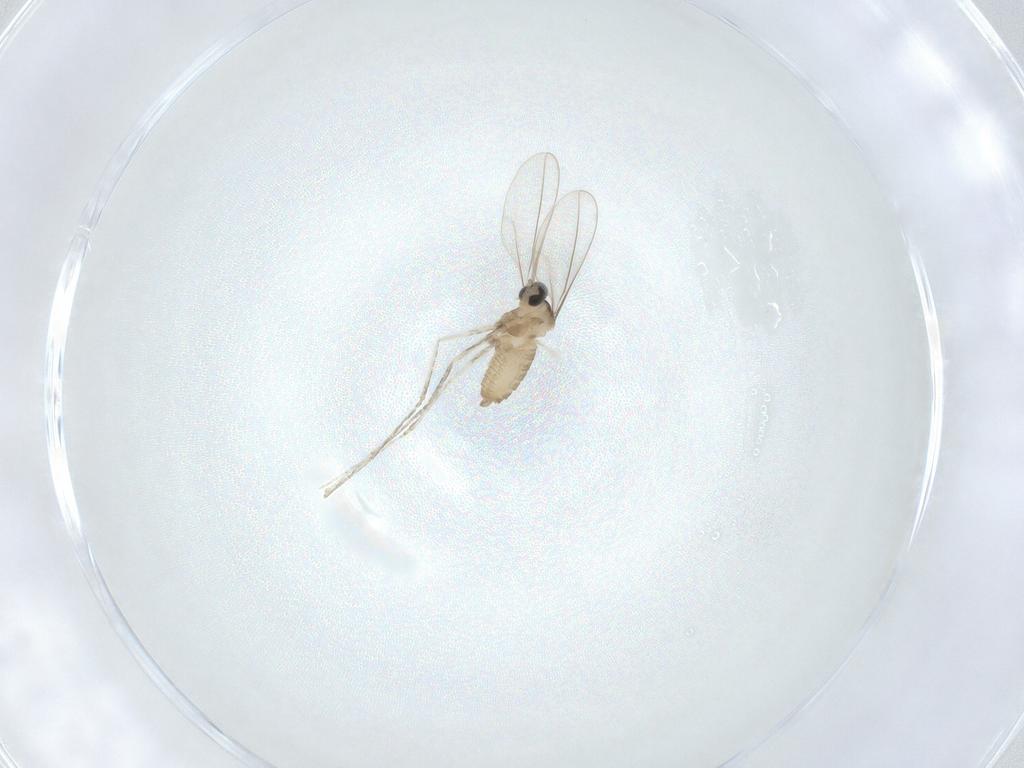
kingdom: Animalia
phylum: Arthropoda
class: Insecta
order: Diptera
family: Cecidomyiidae
